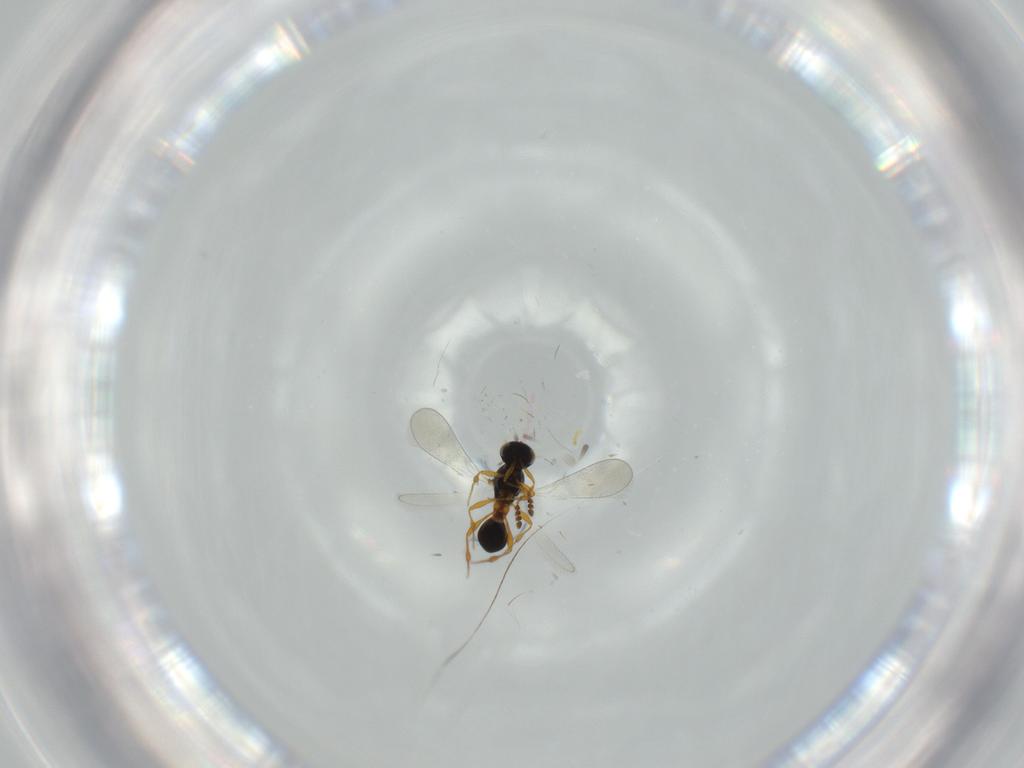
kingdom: Animalia
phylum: Arthropoda
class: Insecta
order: Hymenoptera
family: Platygastridae
